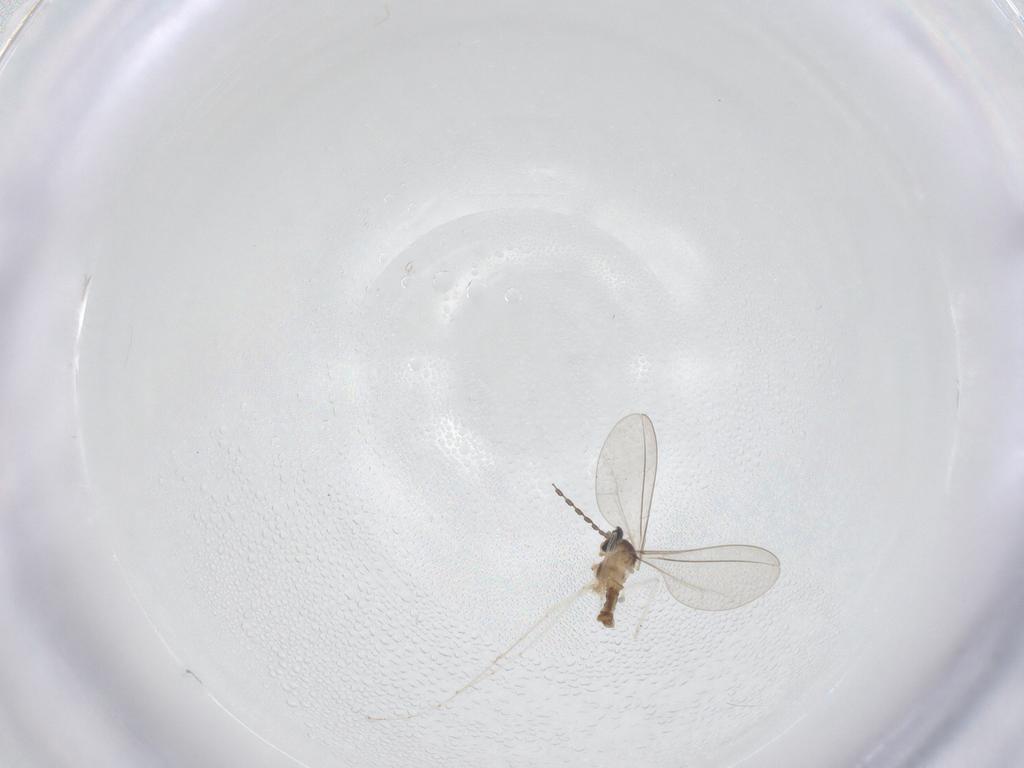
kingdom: Animalia
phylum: Arthropoda
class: Insecta
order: Diptera
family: Cecidomyiidae
